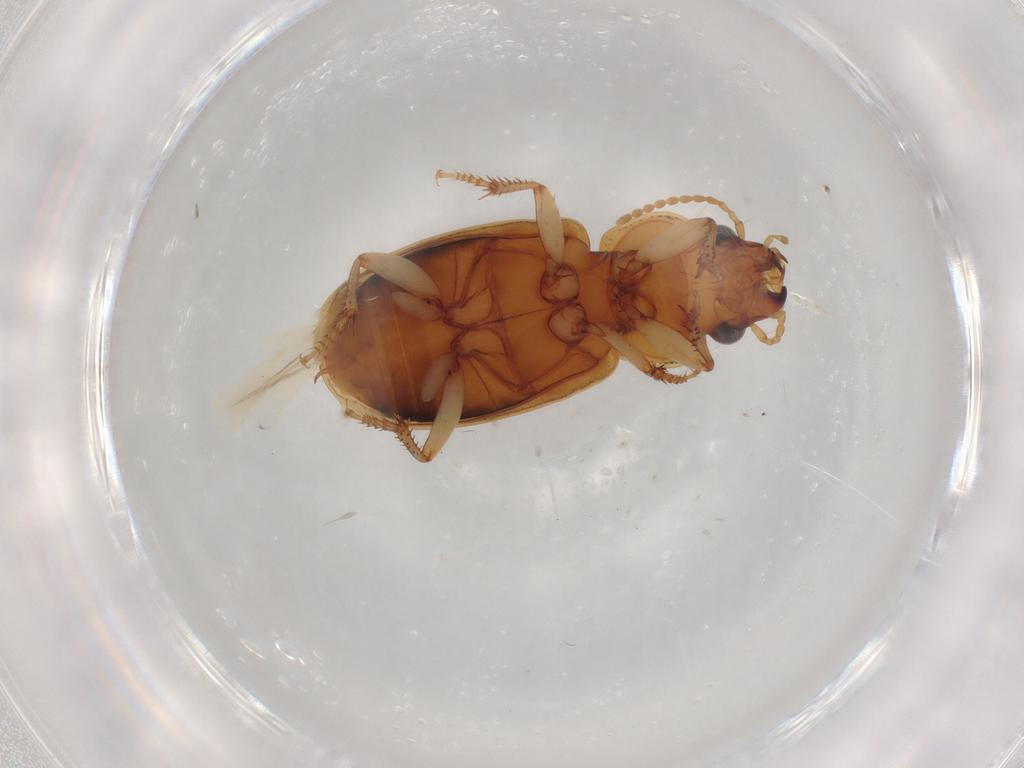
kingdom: Animalia
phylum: Arthropoda
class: Insecta
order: Coleoptera
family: Carabidae
